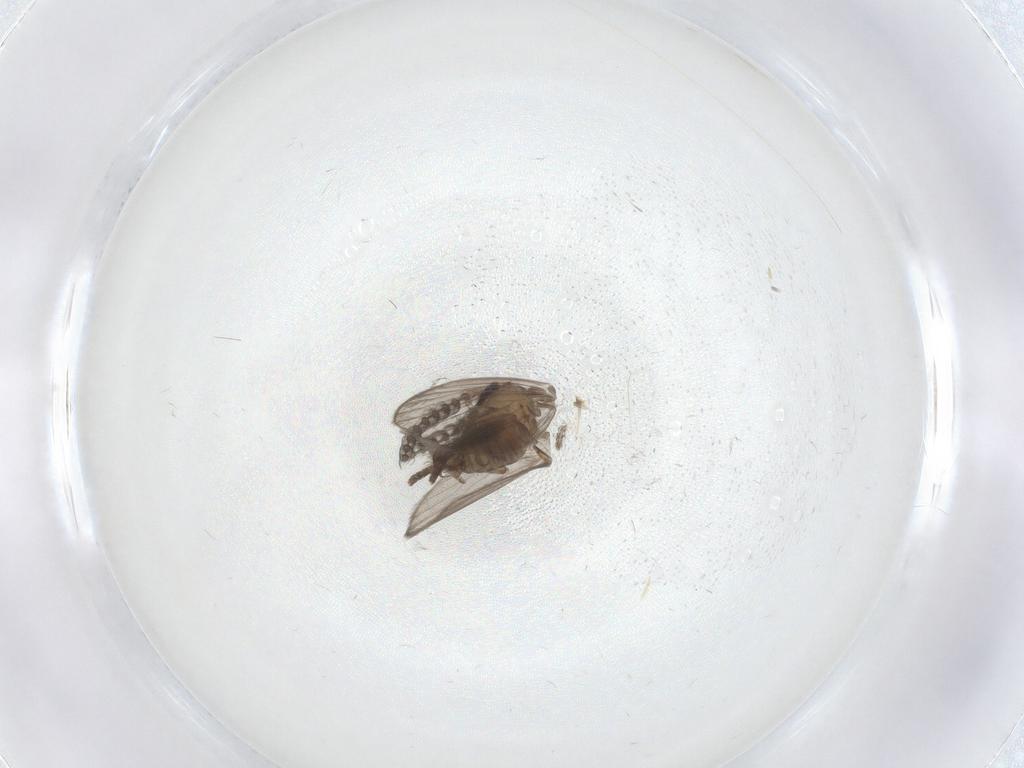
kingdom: Animalia
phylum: Arthropoda
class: Insecta
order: Diptera
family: Psychodidae
